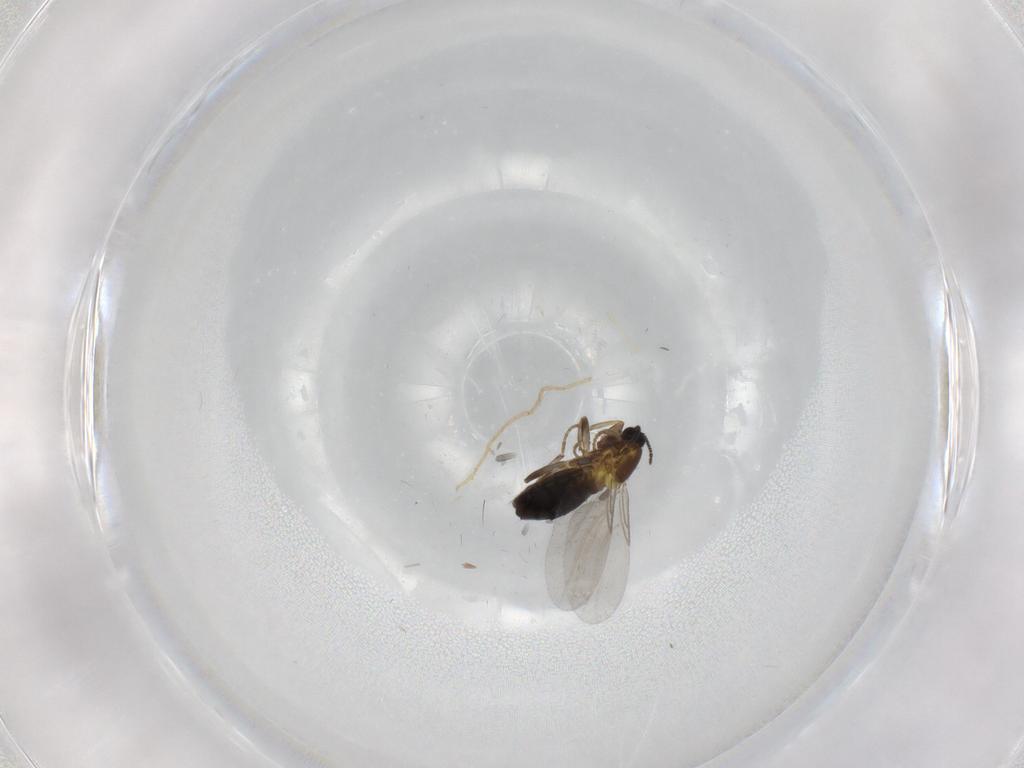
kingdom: Animalia
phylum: Arthropoda
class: Insecta
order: Diptera
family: Scatopsidae
